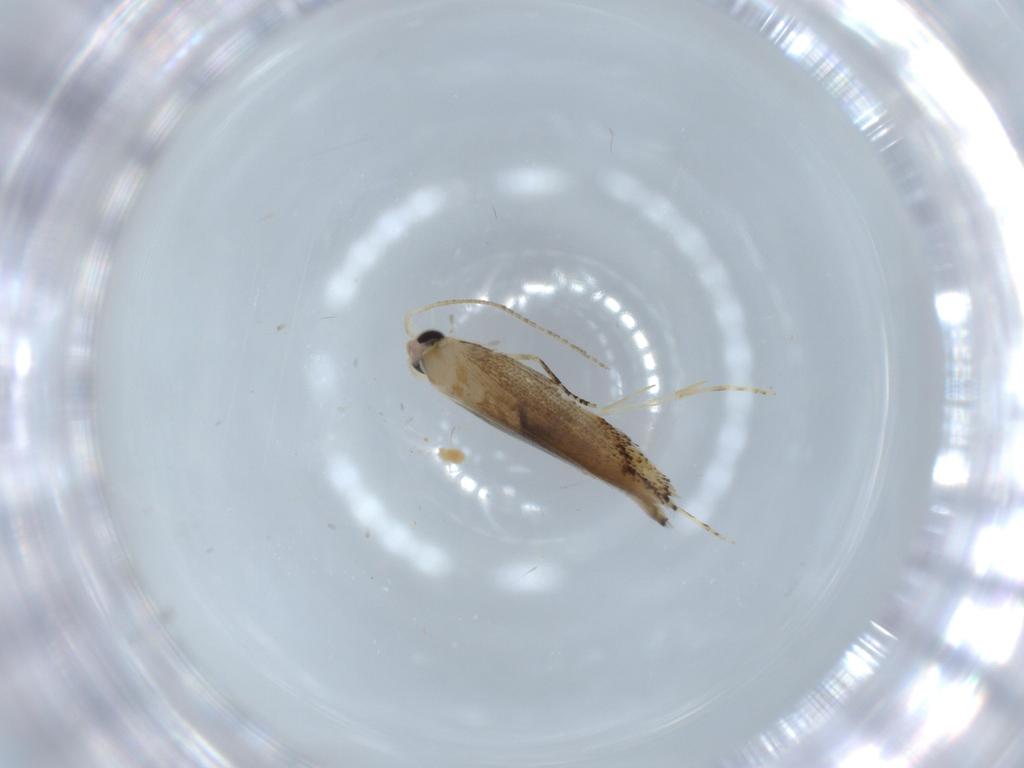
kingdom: Animalia
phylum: Arthropoda
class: Insecta
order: Lepidoptera
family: Bucculatricidae
